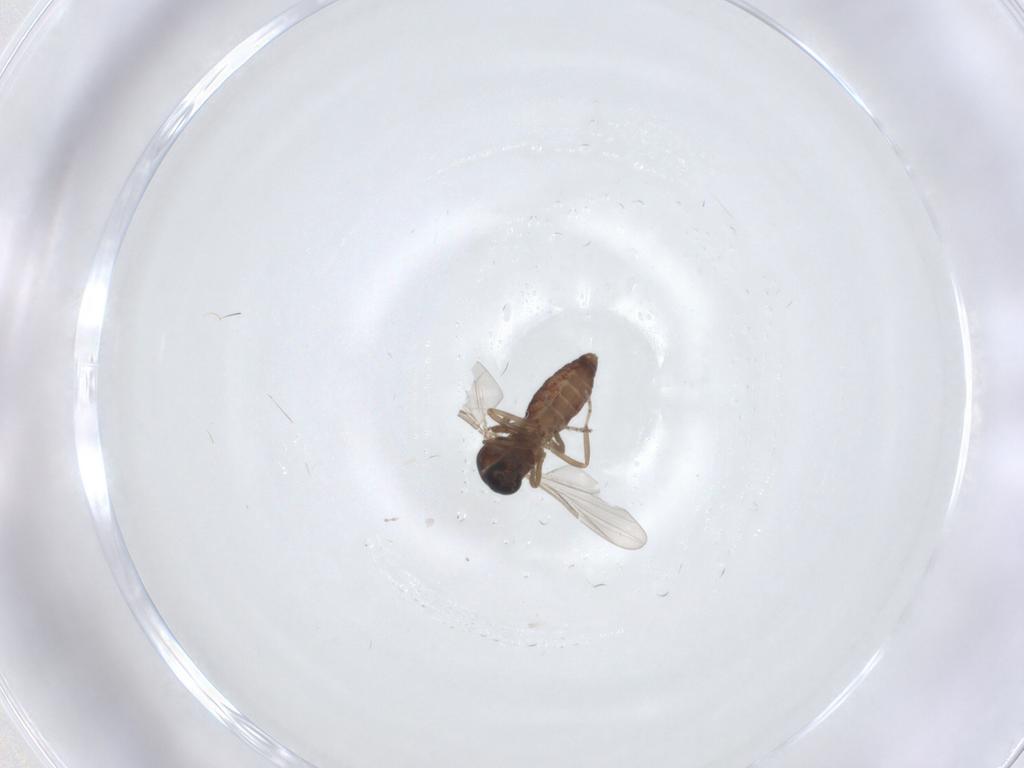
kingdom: Animalia
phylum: Arthropoda
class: Insecta
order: Diptera
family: Ceratopogonidae
